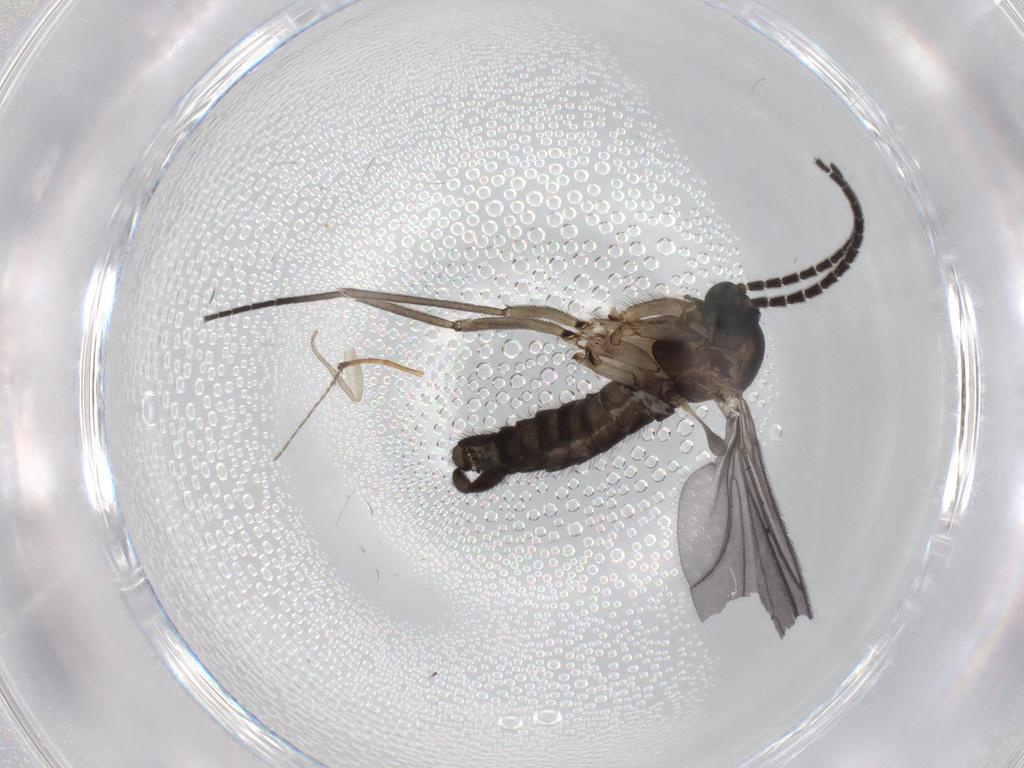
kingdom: Animalia
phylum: Arthropoda
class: Insecta
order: Diptera
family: Sciaridae
